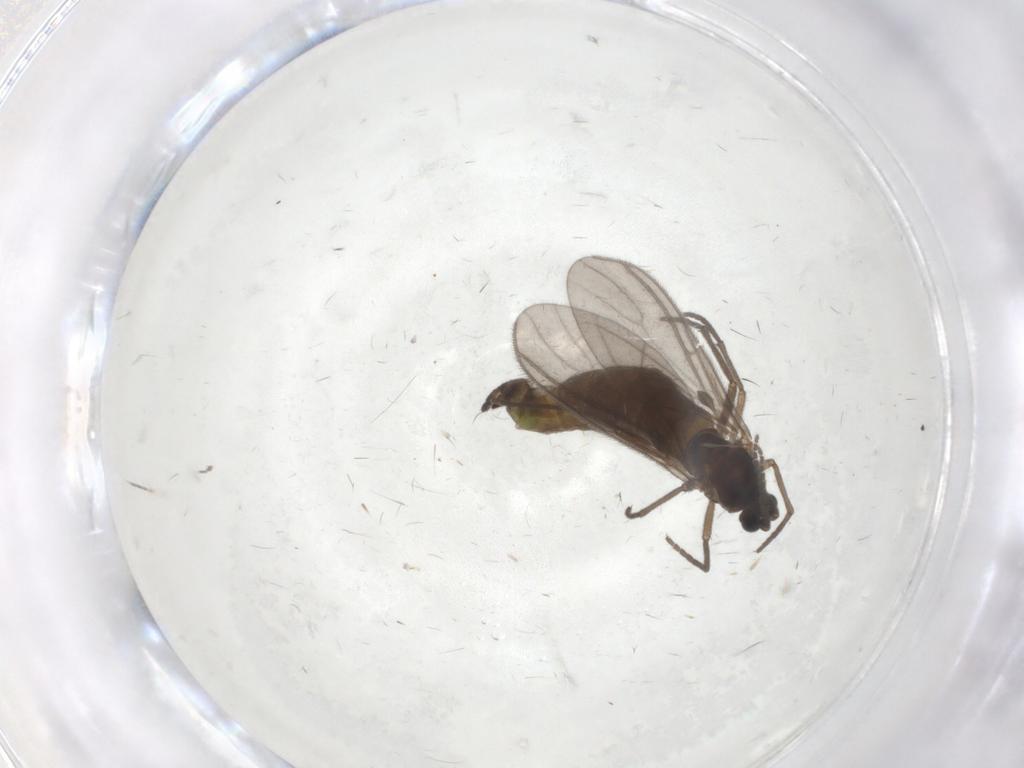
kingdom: Animalia
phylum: Arthropoda
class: Insecta
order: Diptera
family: Sciaridae
